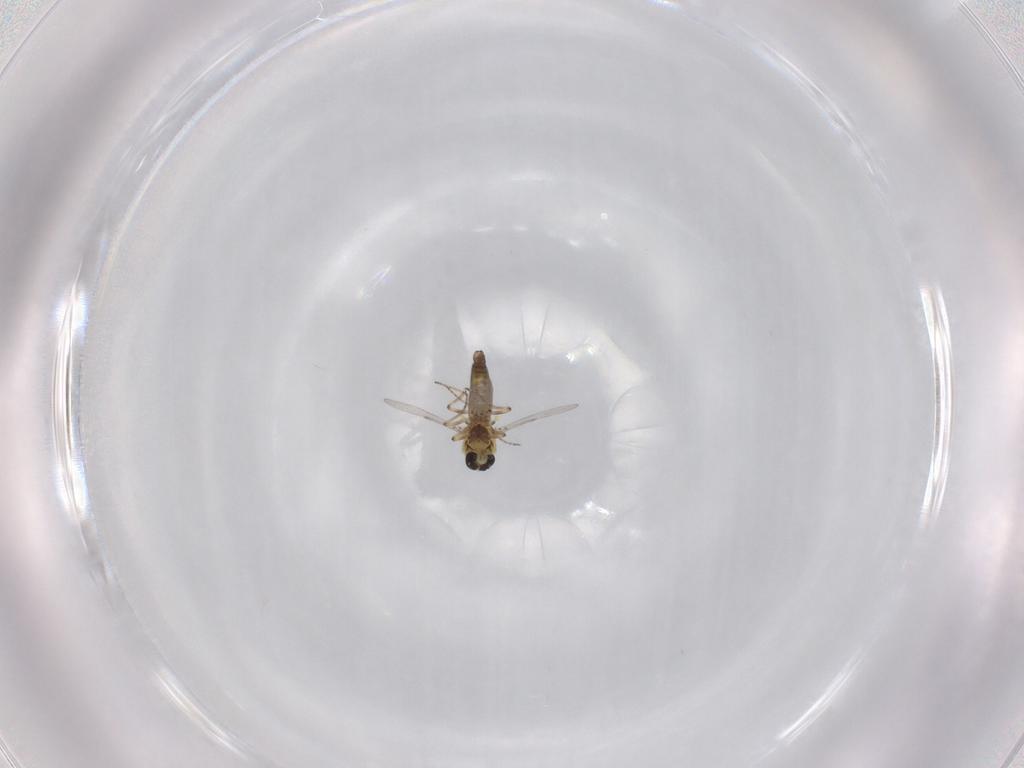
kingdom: Animalia
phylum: Arthropoda
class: Insecta
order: Diptera
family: Ceratopogonidae
